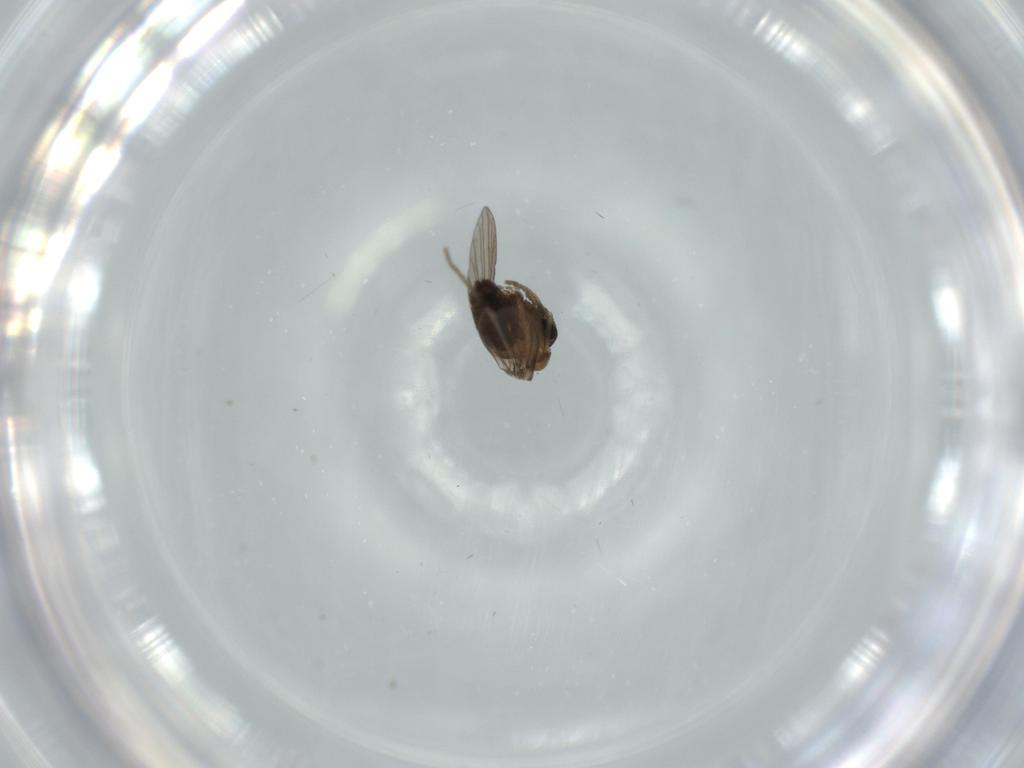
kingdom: Animalia
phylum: Arthropoda
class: Insecta
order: Diptera
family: Psychodidae
